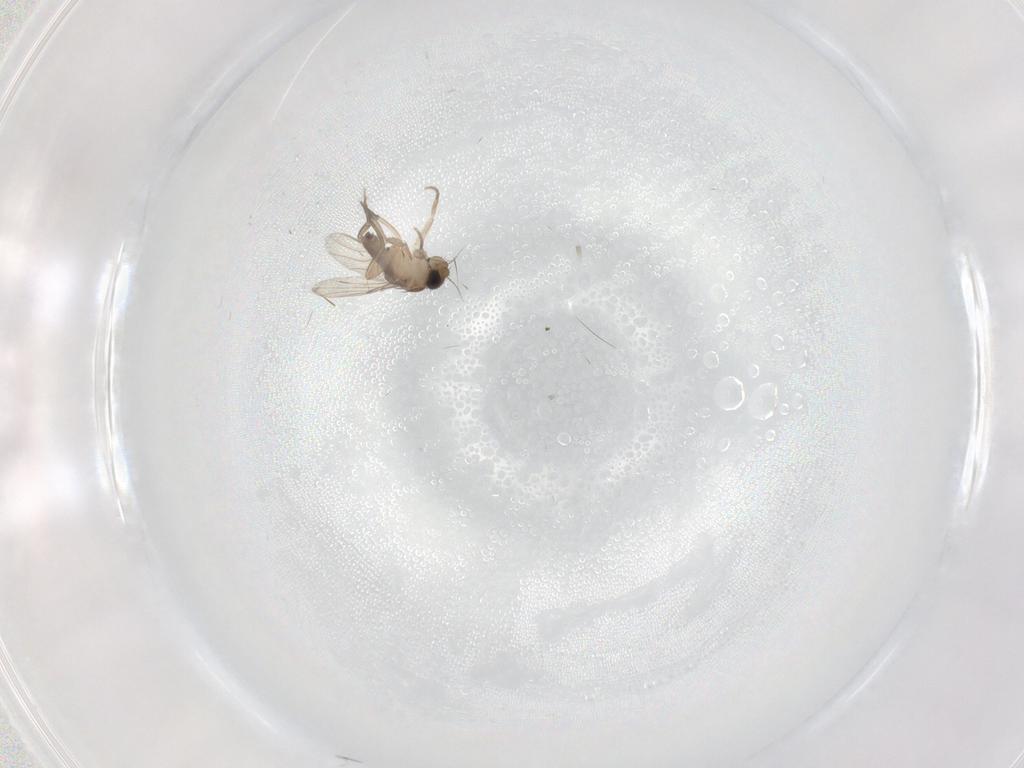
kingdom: Animalia
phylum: Arthropoda
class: Insecta
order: Diptera
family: Phoridae
